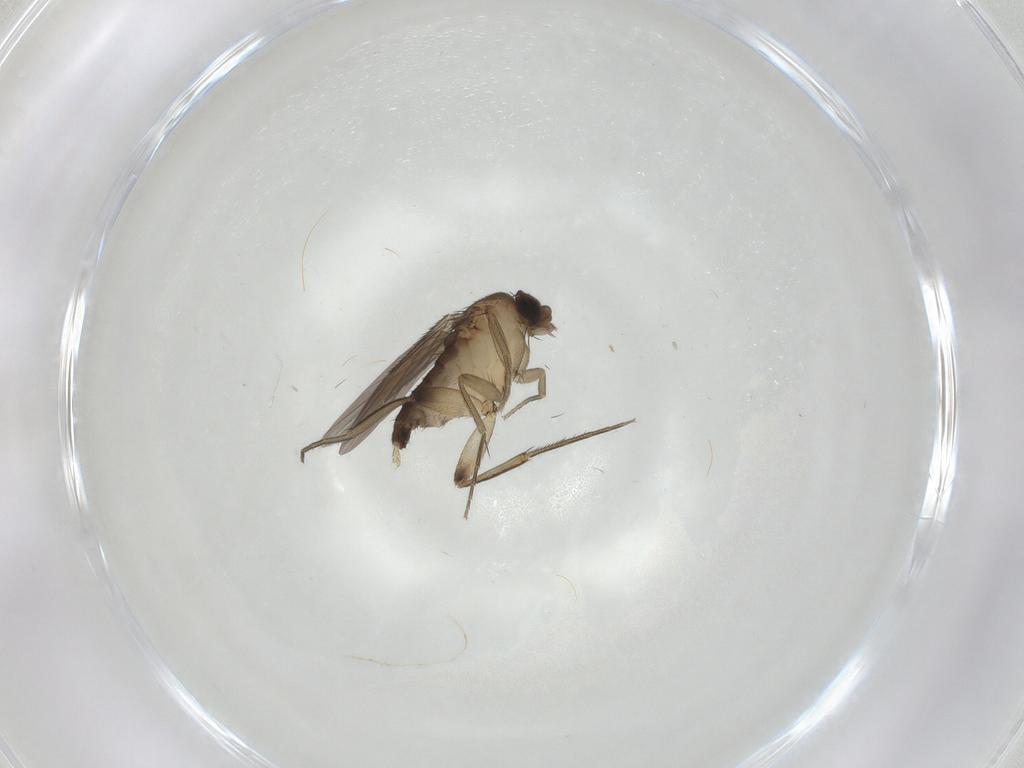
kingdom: Animalia
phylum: Arthropoda
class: Insecta
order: Diptera
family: Phoridae
